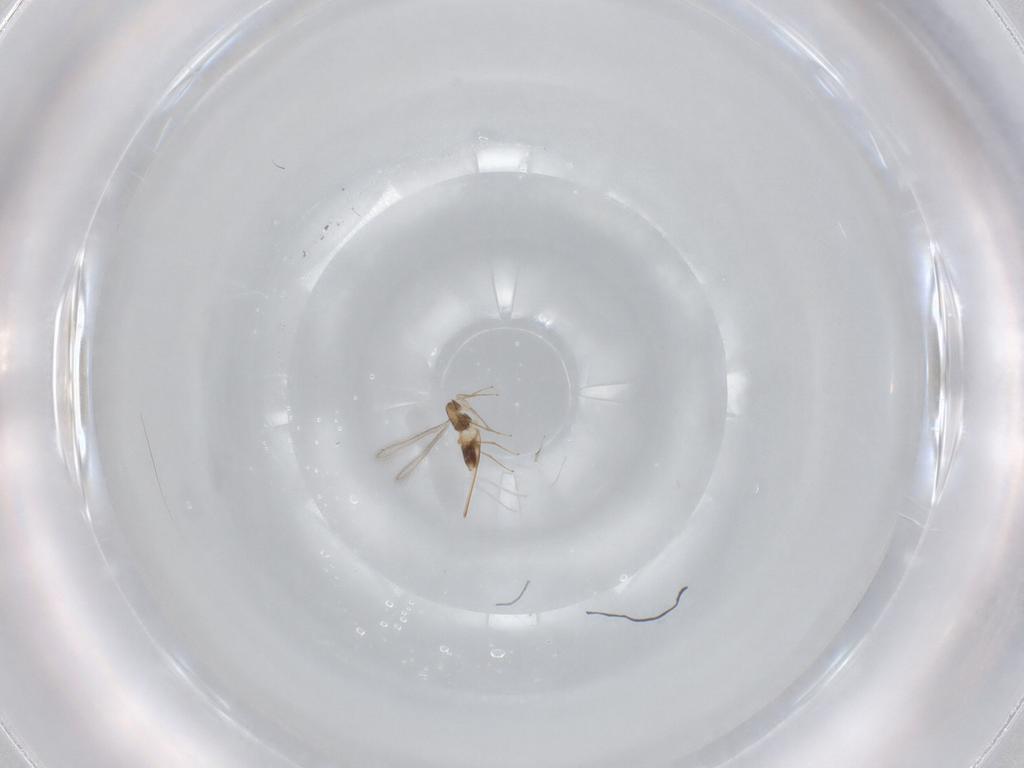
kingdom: Animalia
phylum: Arthropoda
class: Insecta
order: Hymenoptera
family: Mymaridae
